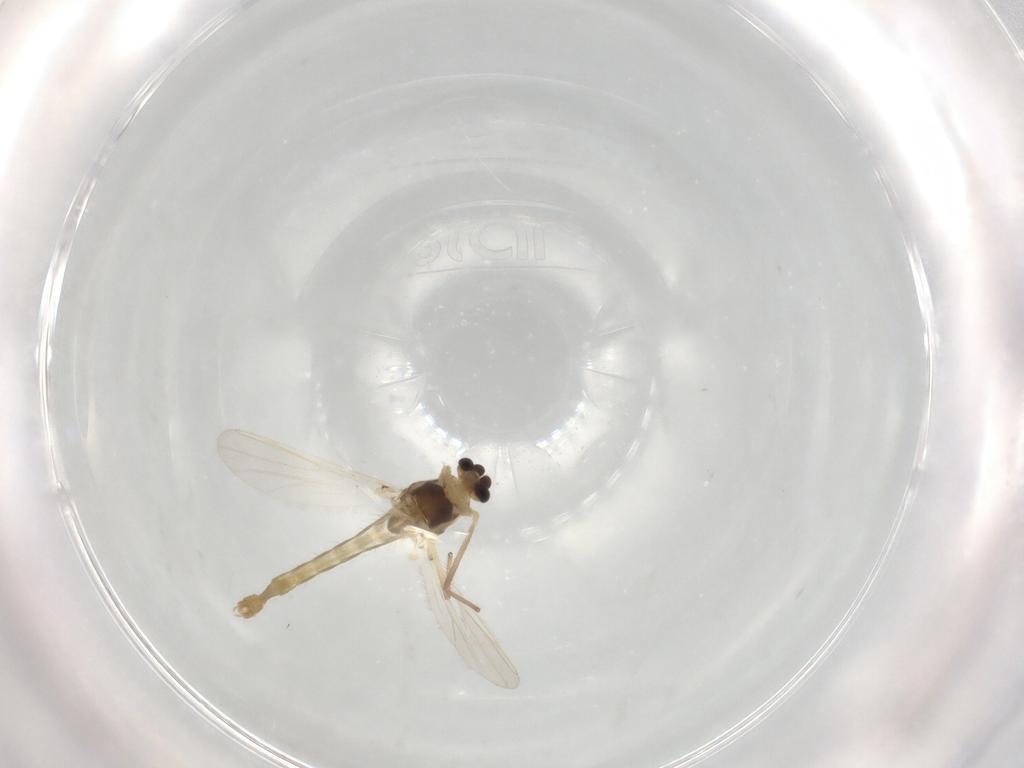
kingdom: Animalia
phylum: Arthropoda
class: Insecta
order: Diptera
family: Chironomidae
